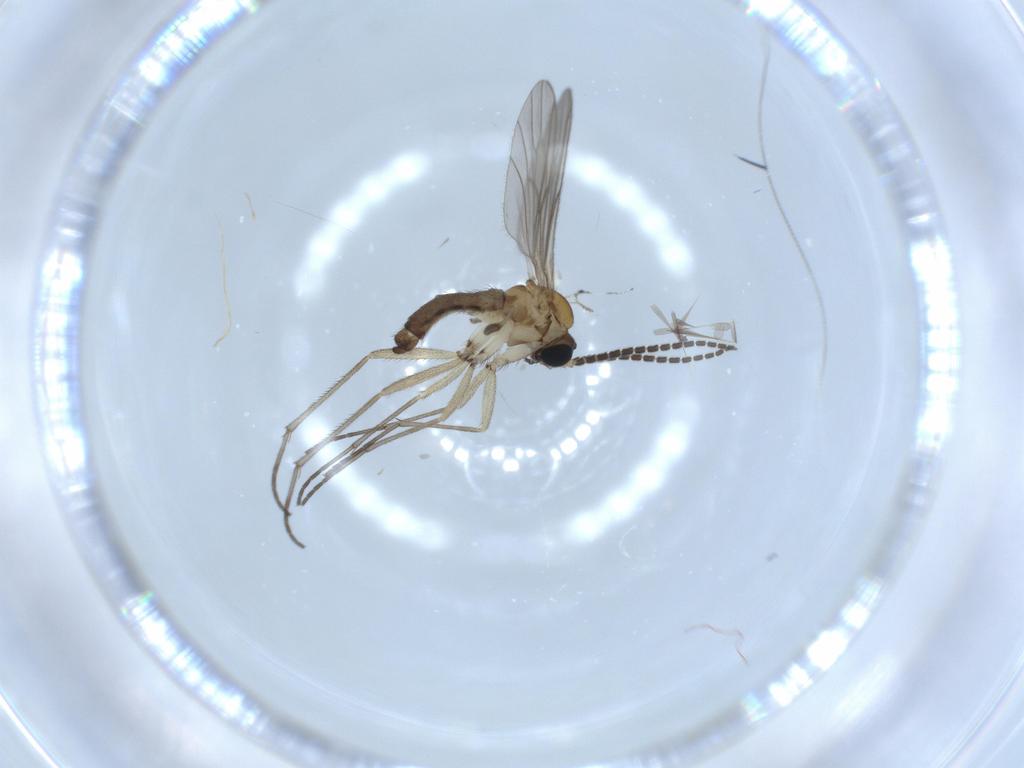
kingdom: Animalia
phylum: Arthropoda
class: Insecta
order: Diptera
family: Sciaridae
